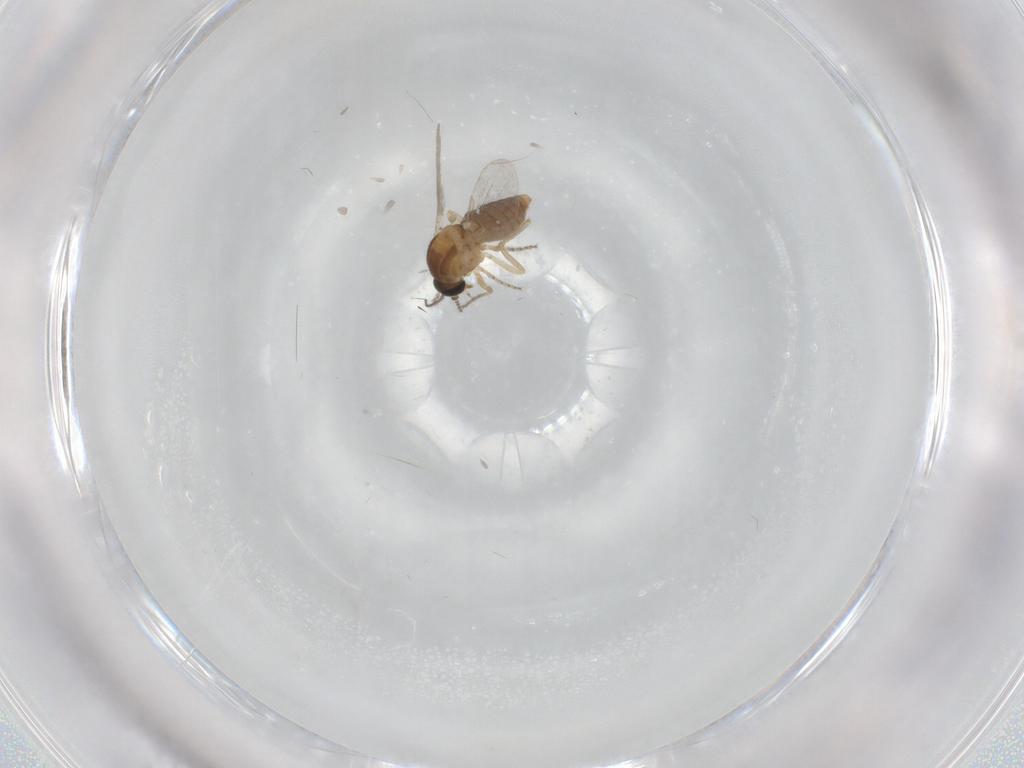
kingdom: Animalia
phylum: Arthropoda
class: Insecta
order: Diptera
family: Ceratopogonidae
